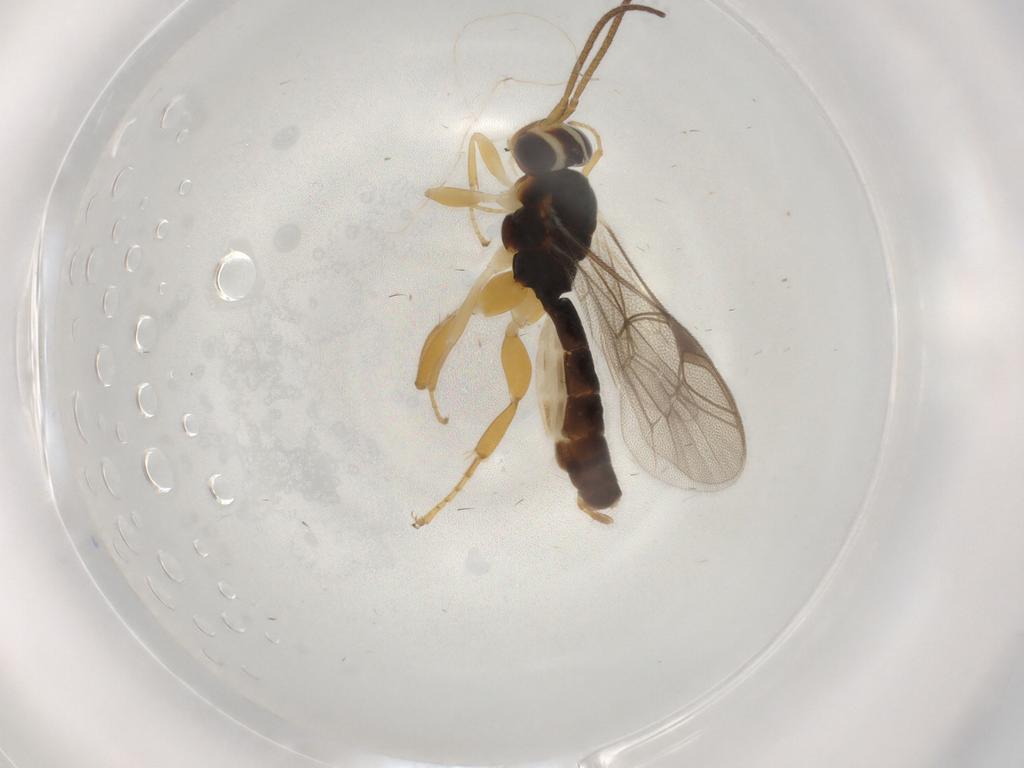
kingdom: Animalia
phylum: Arthropoda
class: Insecta
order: Hymenoptera
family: Ichneumonidae
